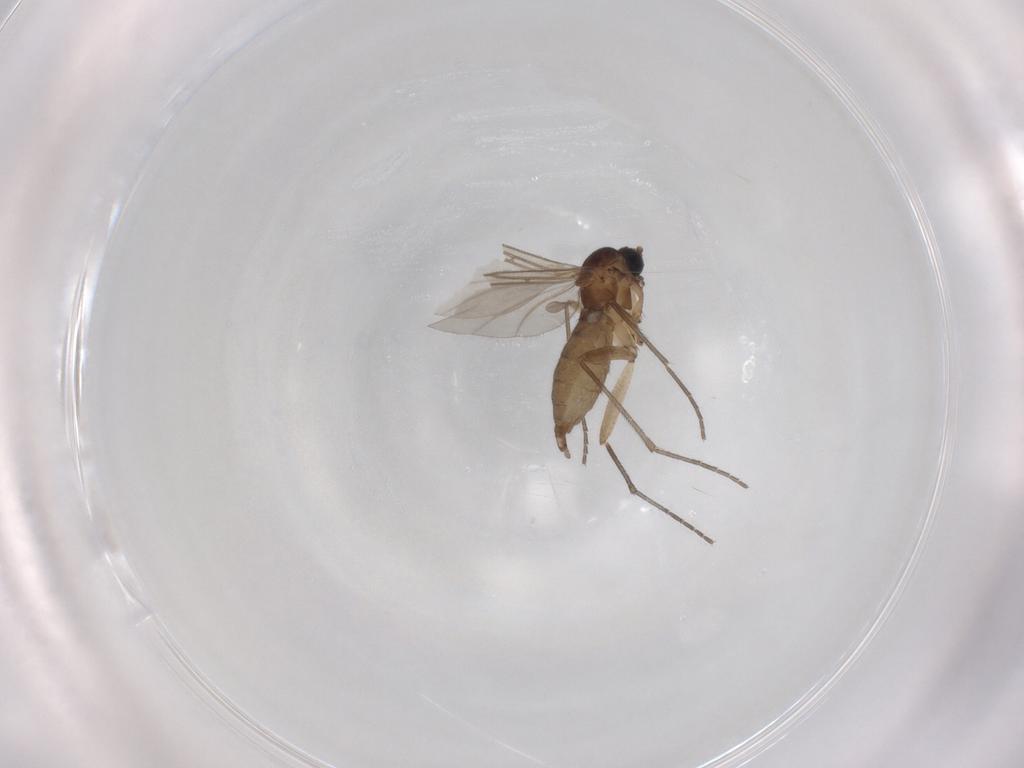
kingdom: Animalia
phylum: Arthropoda
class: Insecta
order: Diptera
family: Sciaridae
